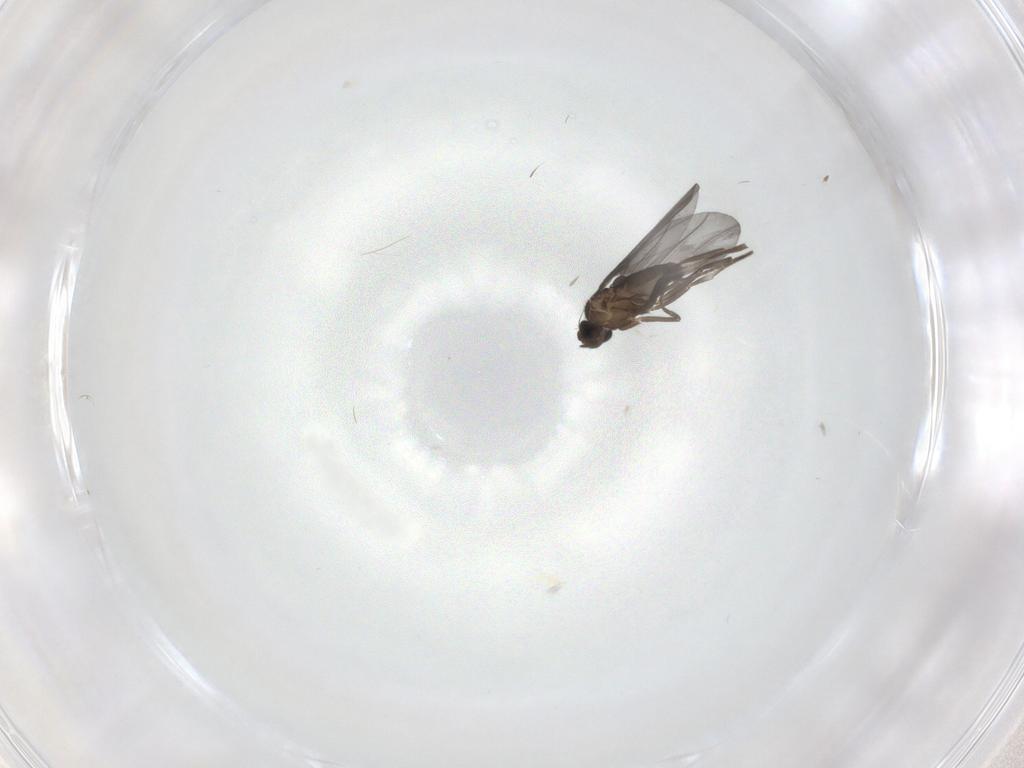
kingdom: Animalia
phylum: Arthropoda
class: Insecta
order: Diptera
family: Phoridae
